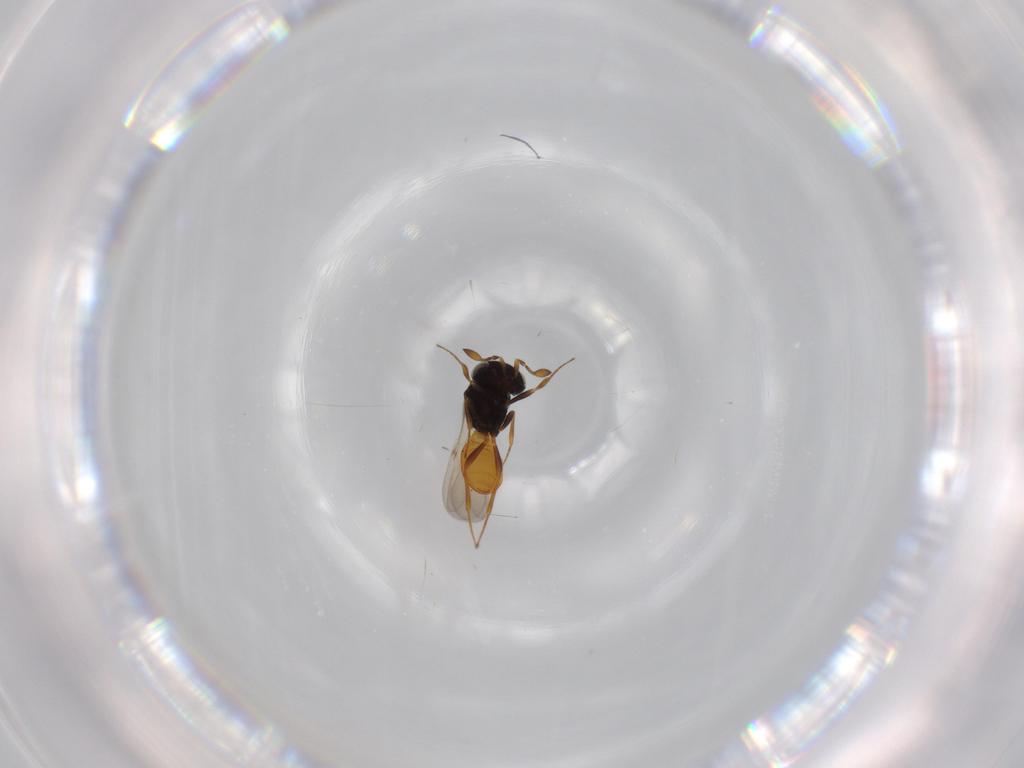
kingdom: Animalia
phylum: Arthropoda
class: Insecta
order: Hymenoptera
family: Scelionidae
